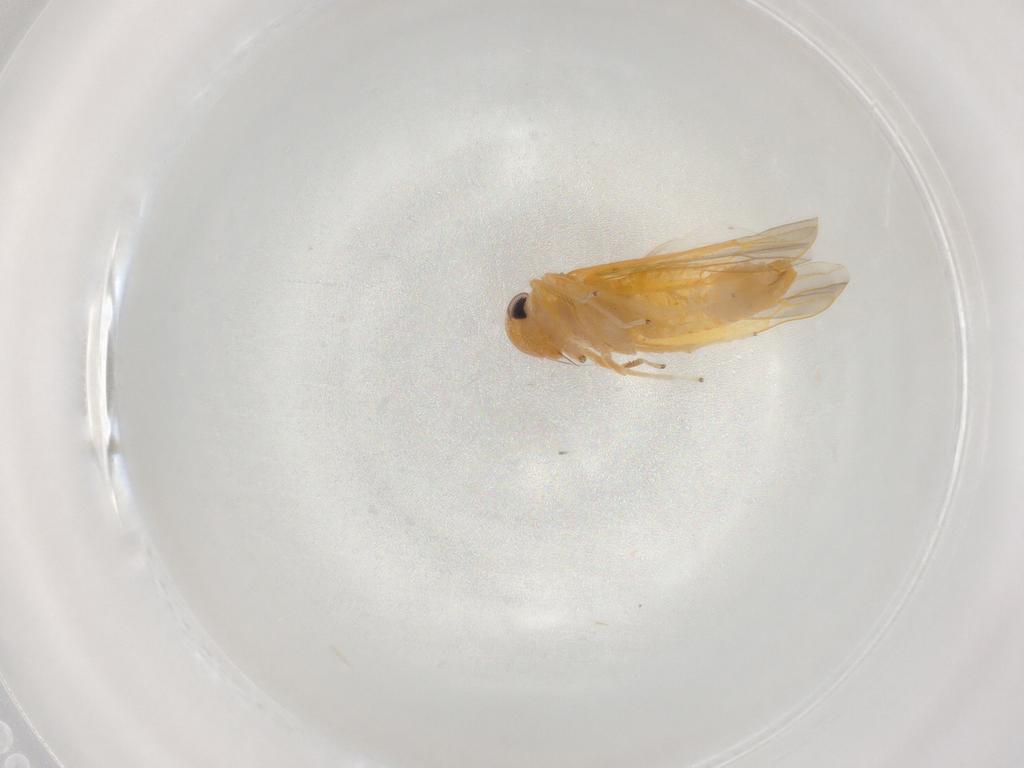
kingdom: Animalia
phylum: Arthropoda
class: Insecta
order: Hemiptera
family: Cicadellidae
